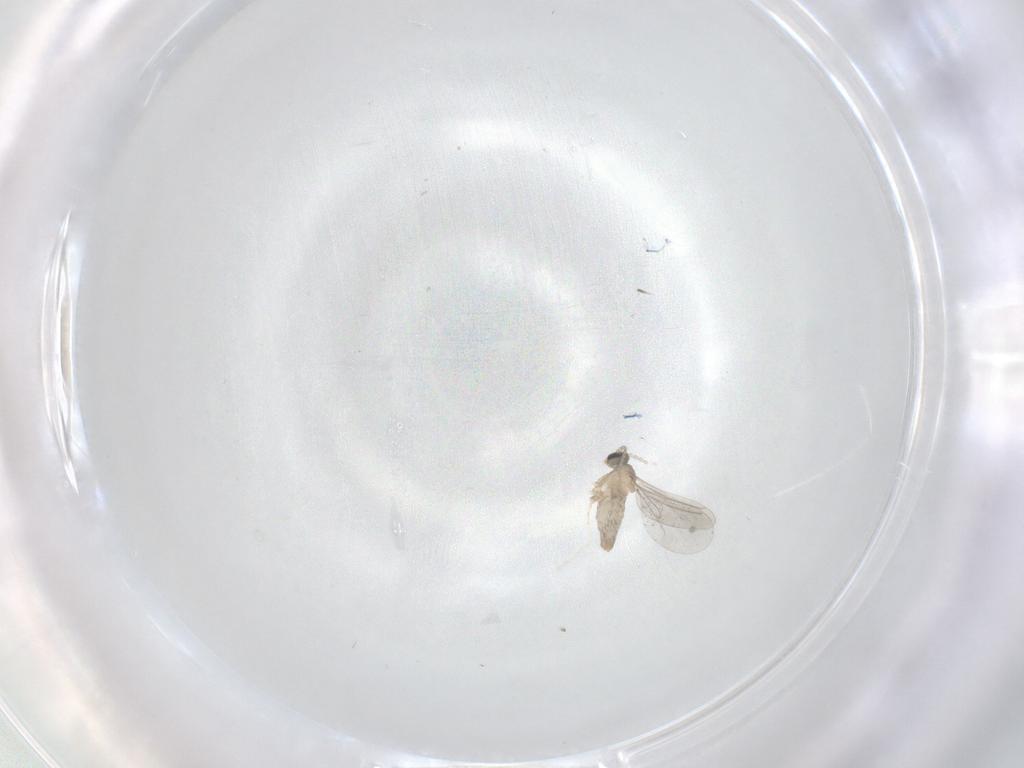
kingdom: Animalia
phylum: Arthropoda
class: Insecta
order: Diptera
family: Cecidomyiidae
